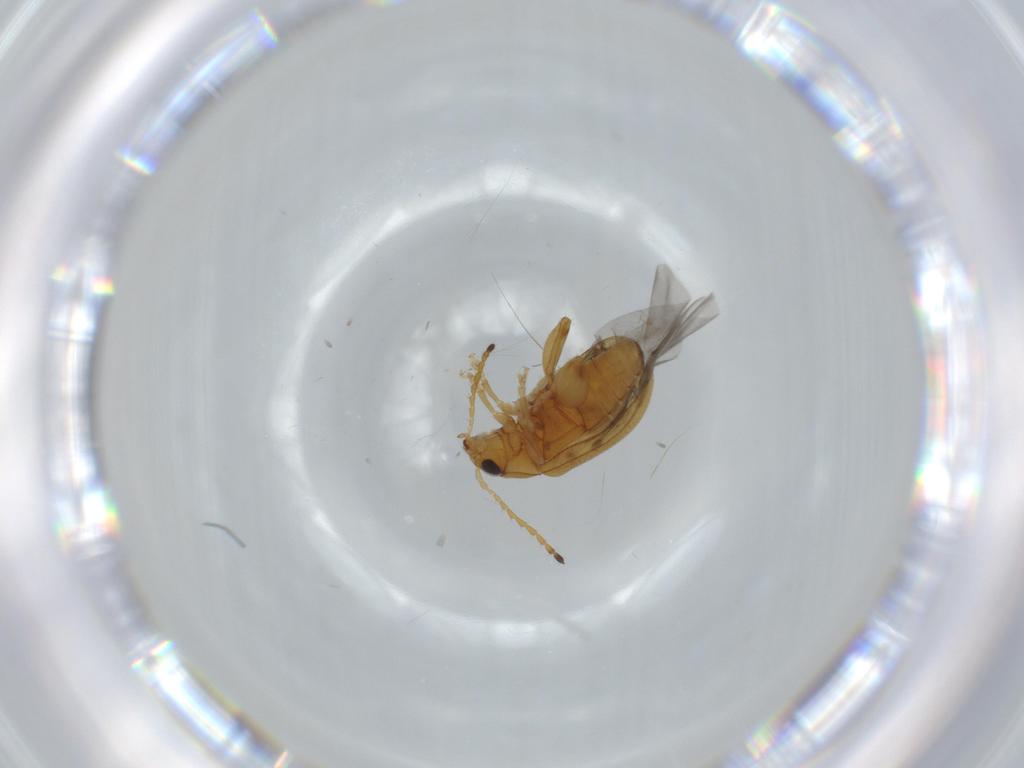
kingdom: Animalia
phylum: Arthropoda
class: Insecta
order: Coleoptera
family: Chrysomelidae
